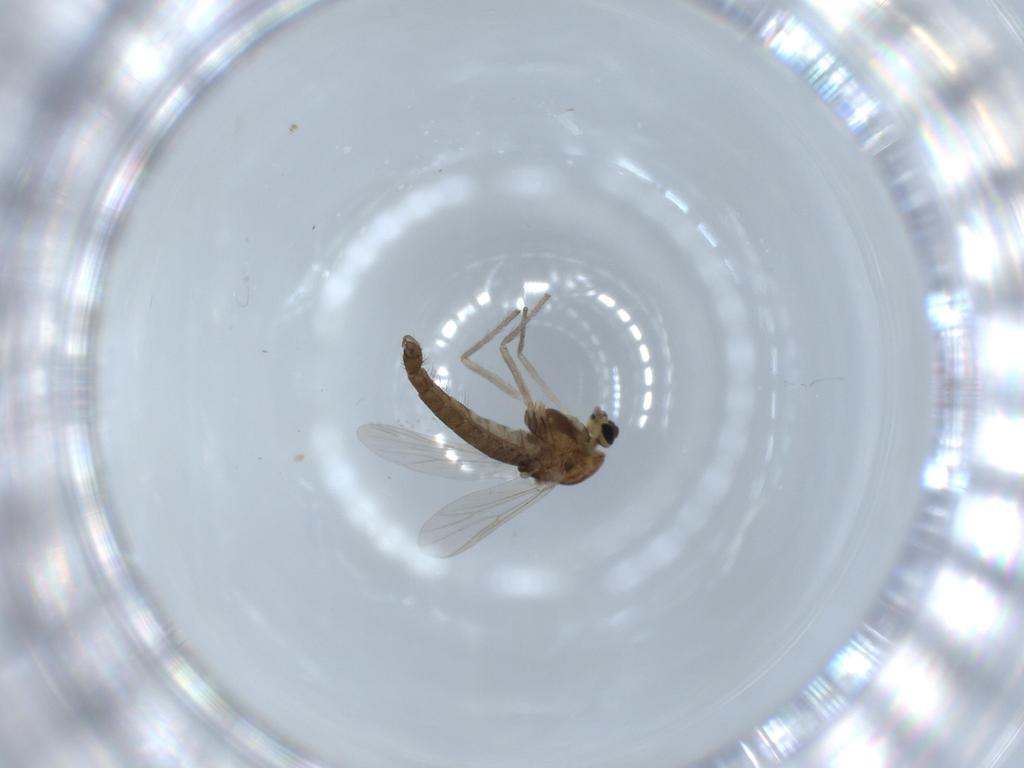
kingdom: Animalia
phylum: Arthropoda
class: Insecta
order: Diptera
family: Chironomidae
